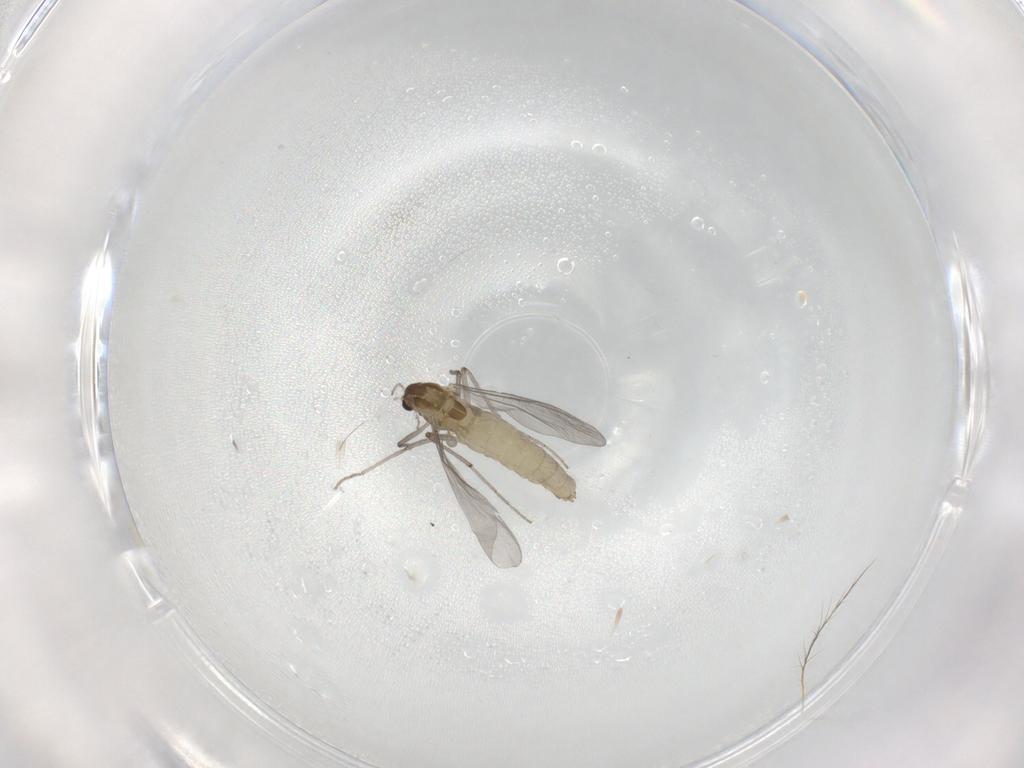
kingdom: Animalia
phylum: Arthropoda
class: Insecta
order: Diptera
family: Chironomidae
